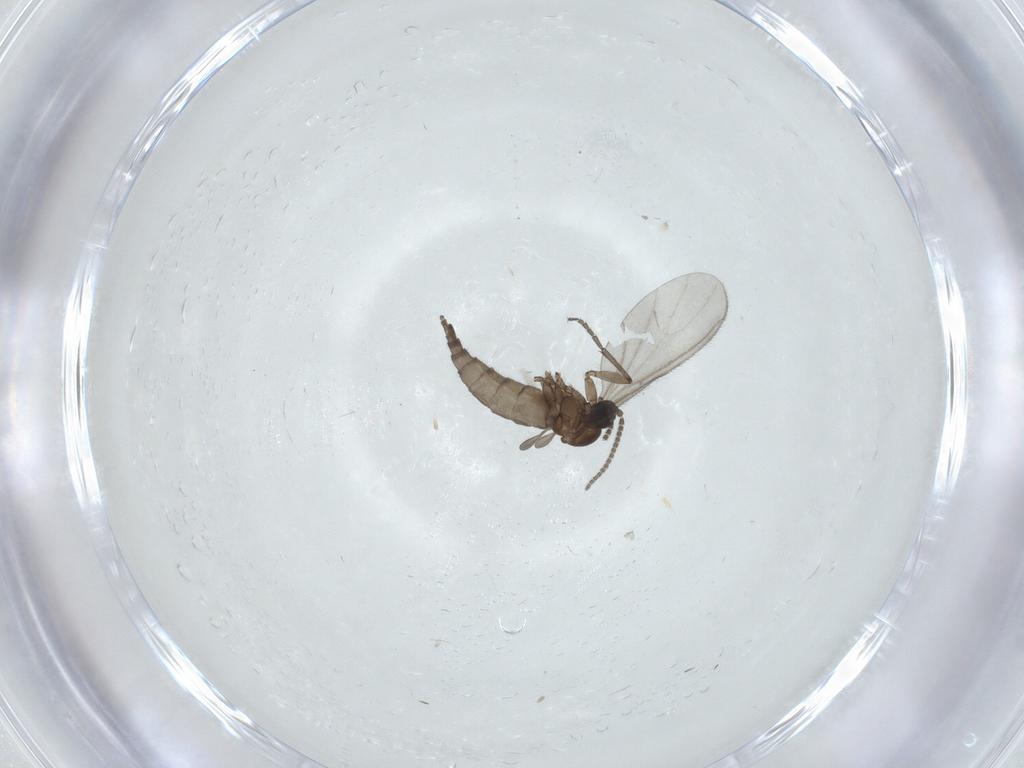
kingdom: Animalia
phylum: Arthropoda
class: Insecta
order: Diptera
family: Sciaridae
